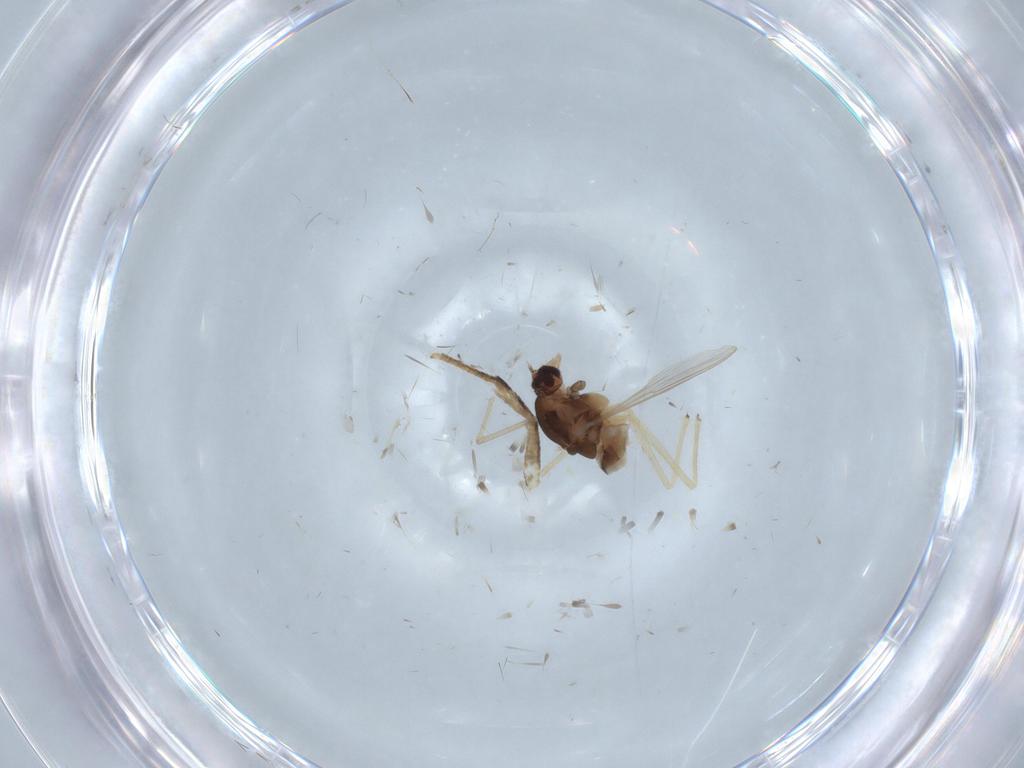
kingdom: Animalia
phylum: Arthropoda
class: Insecta
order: Diptera
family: Chironomidae
